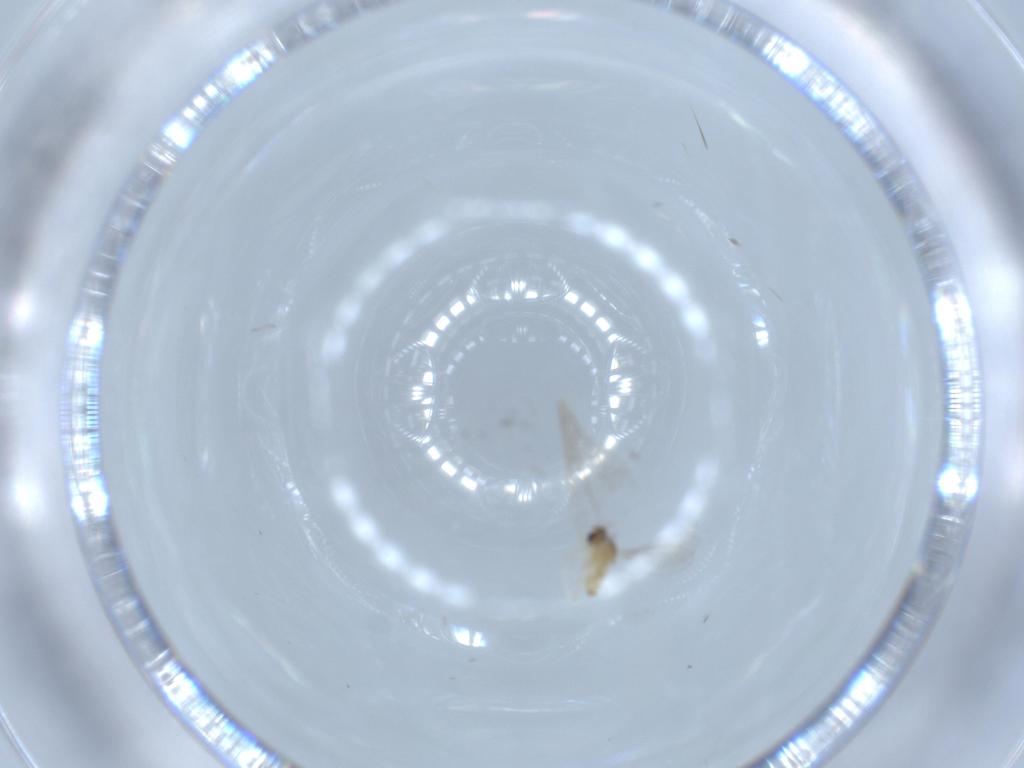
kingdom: Animalia
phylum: Arthropoda
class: Insecta
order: Diptera
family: Cecidomyiidae
